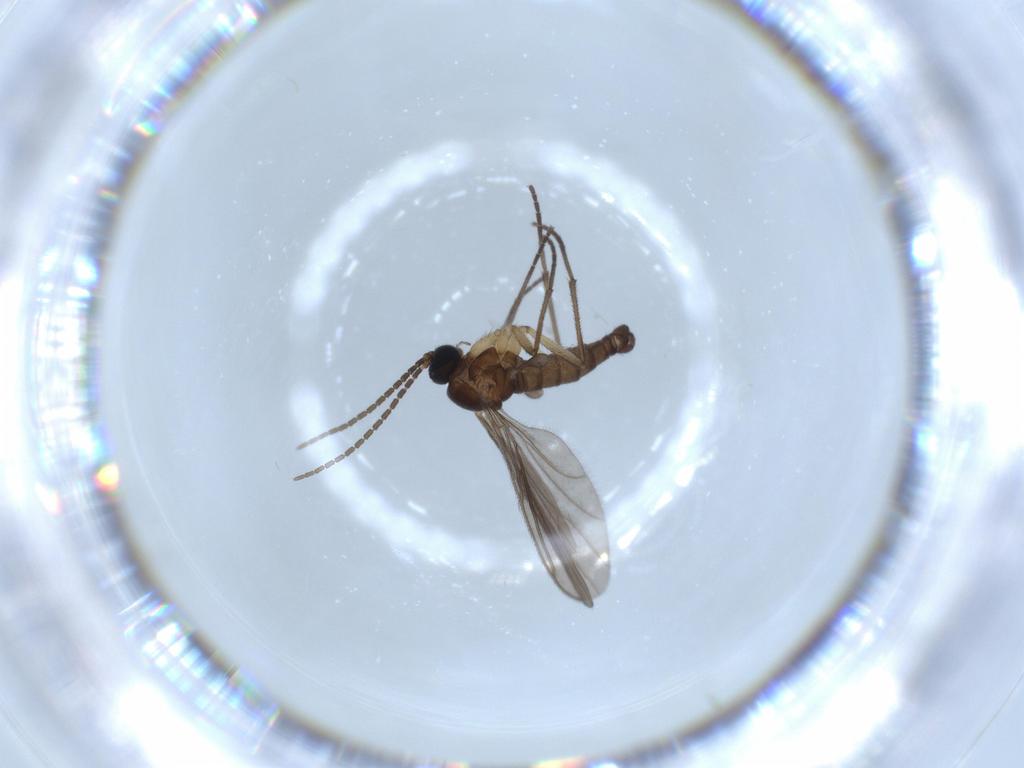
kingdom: Animalia
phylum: Arthropoda
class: Insecta
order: Diptera
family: Sciaridae
